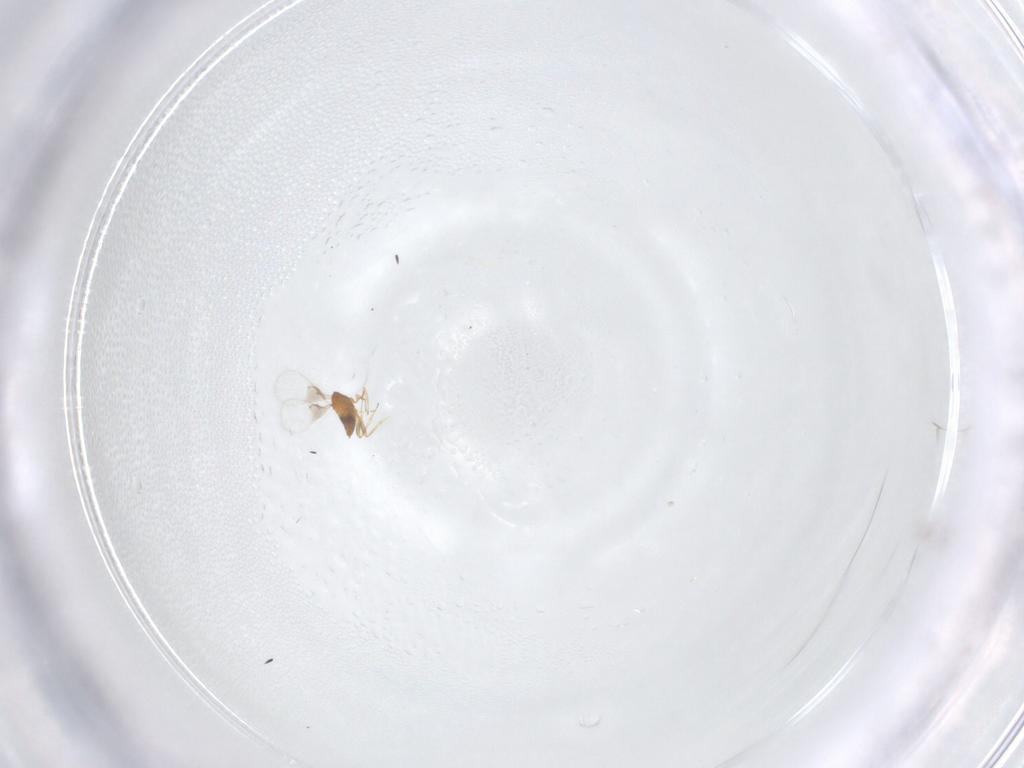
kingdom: Animalia
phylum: Arthropoda
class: Insecta
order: Hymenoptera
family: Trichogrammatidae
